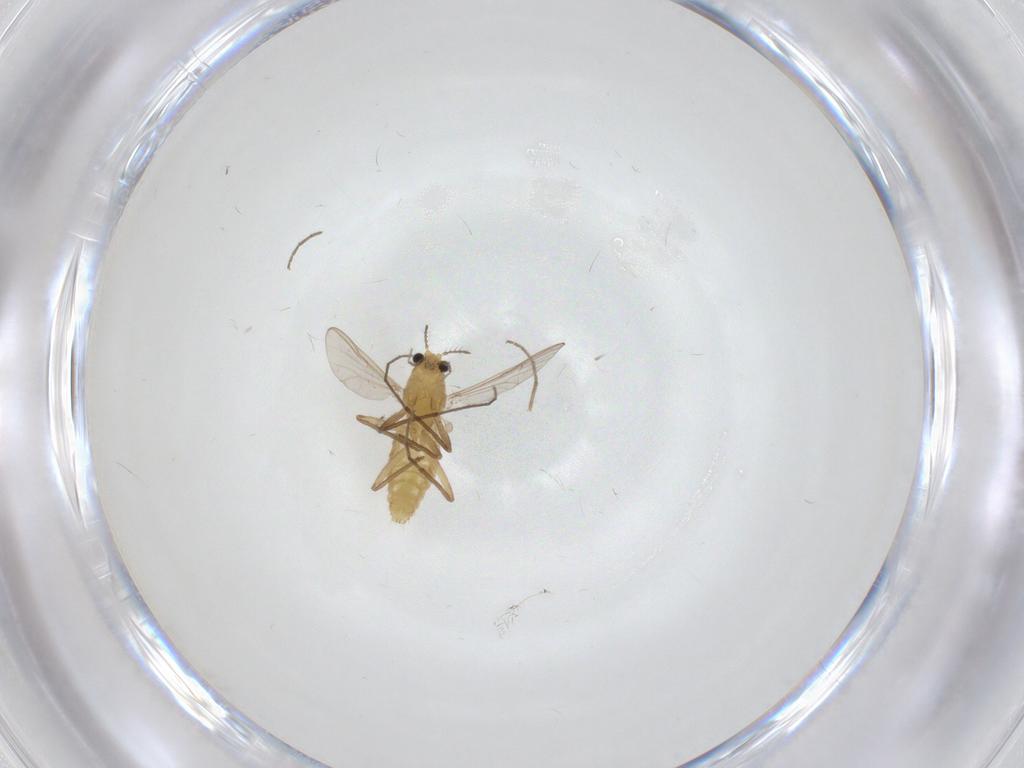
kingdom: Animalia
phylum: Arthropoda
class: Insecta
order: Diptera
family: Chironomidae
